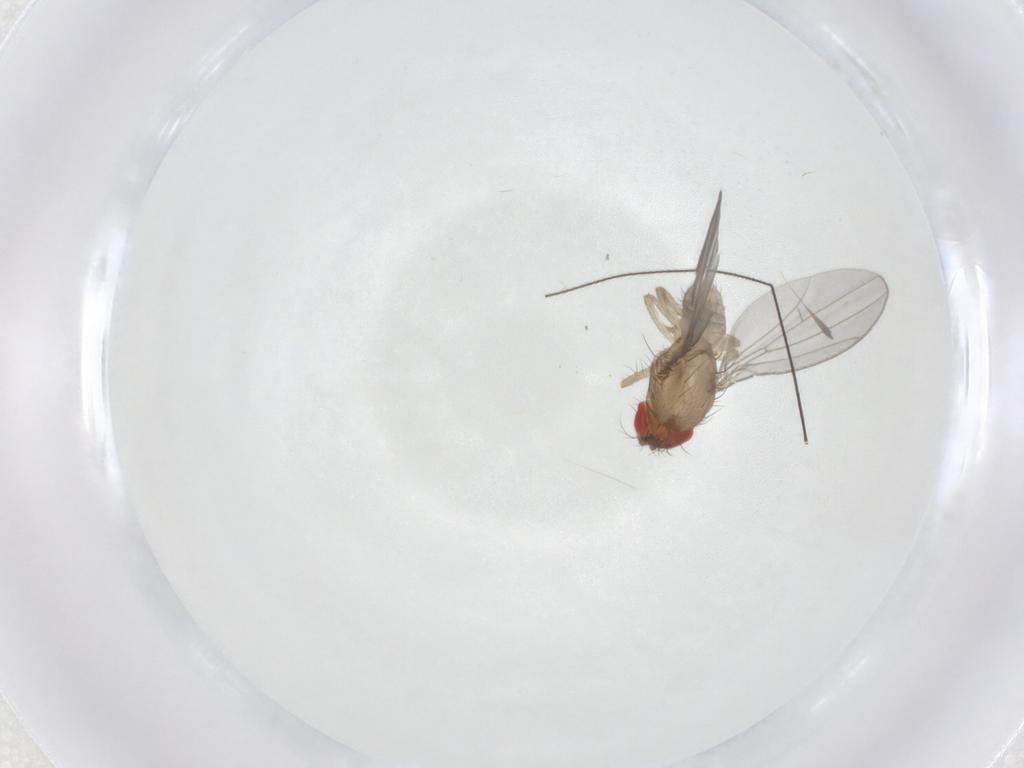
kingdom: Animalia
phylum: Arthropoda
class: Insecta
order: Diptera
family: Drosophilidae
